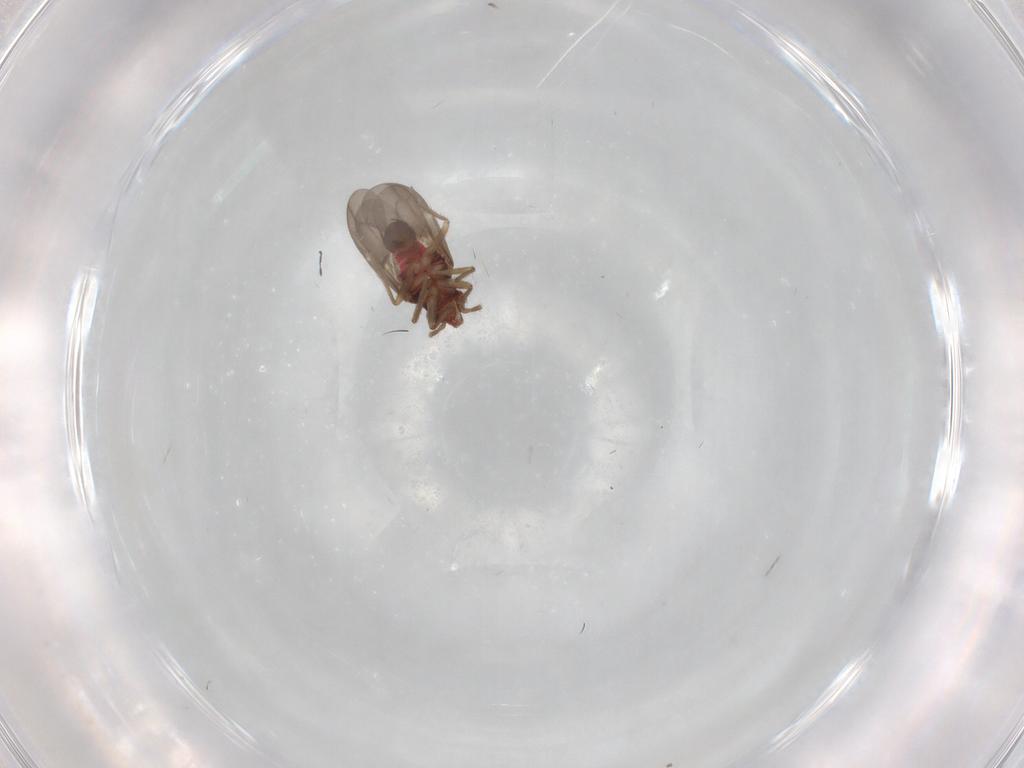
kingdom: Animalia
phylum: Arthropoda
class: Insecta
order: Hemiptera
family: Ceratocombidae
